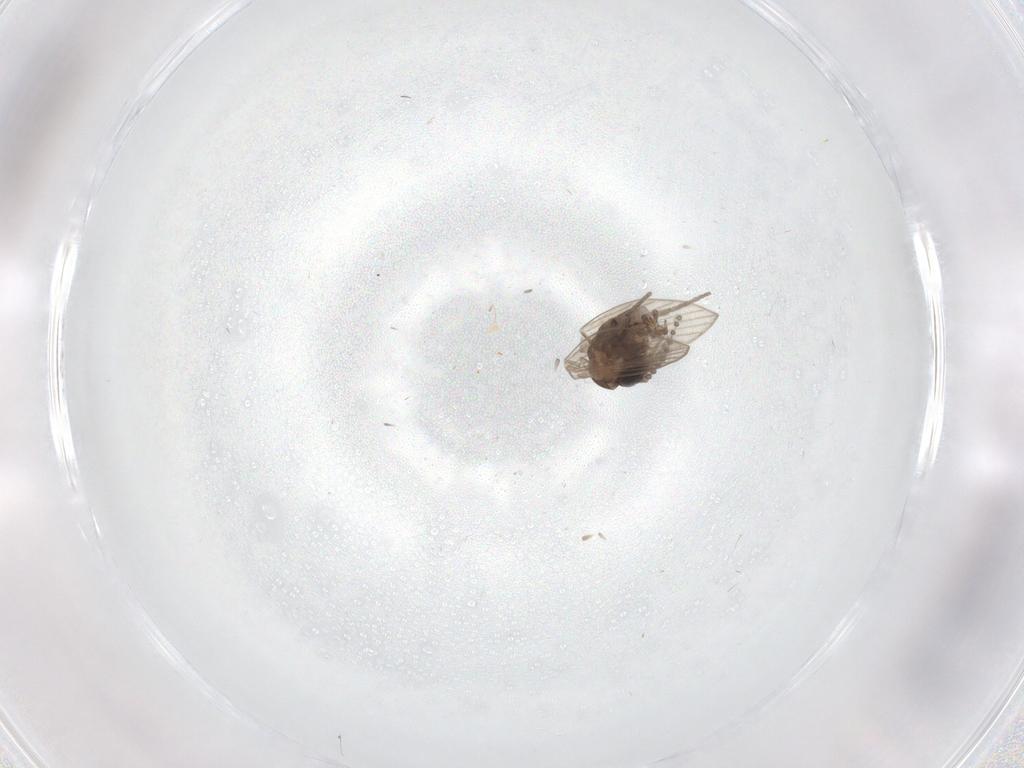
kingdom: Animalia
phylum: Arthropoda
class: Insecta
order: Diptera
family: Psychodidae
